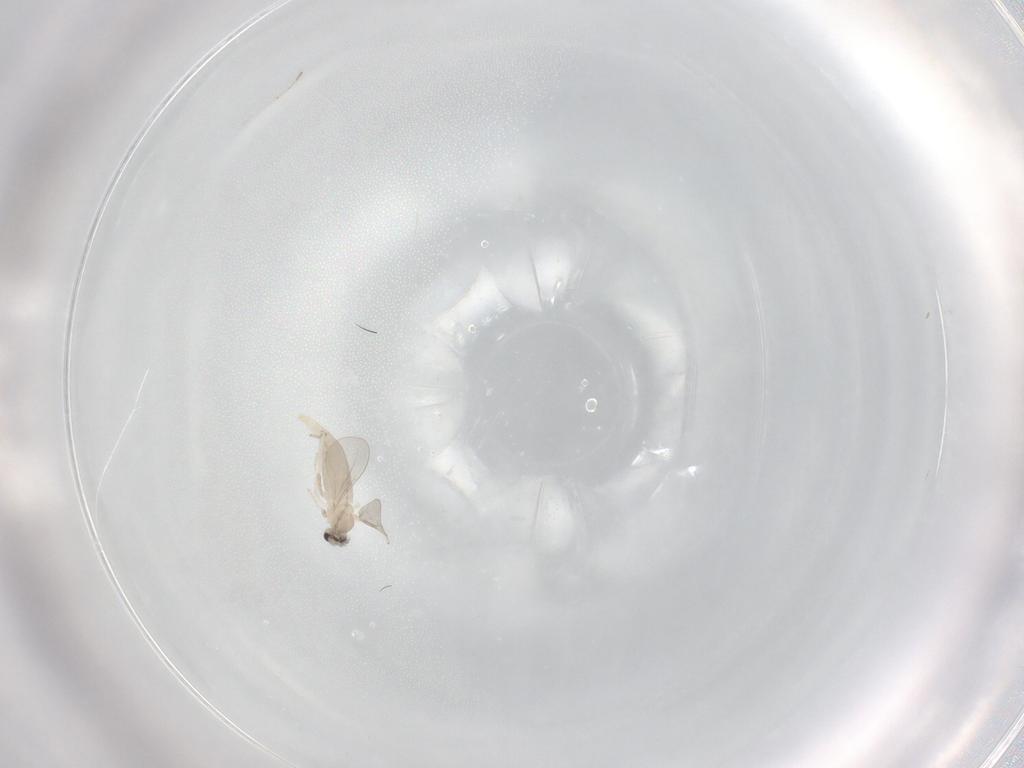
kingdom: Animalia
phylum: Arthropoda
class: Insecta
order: Diptera
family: Cecidomyiidae
